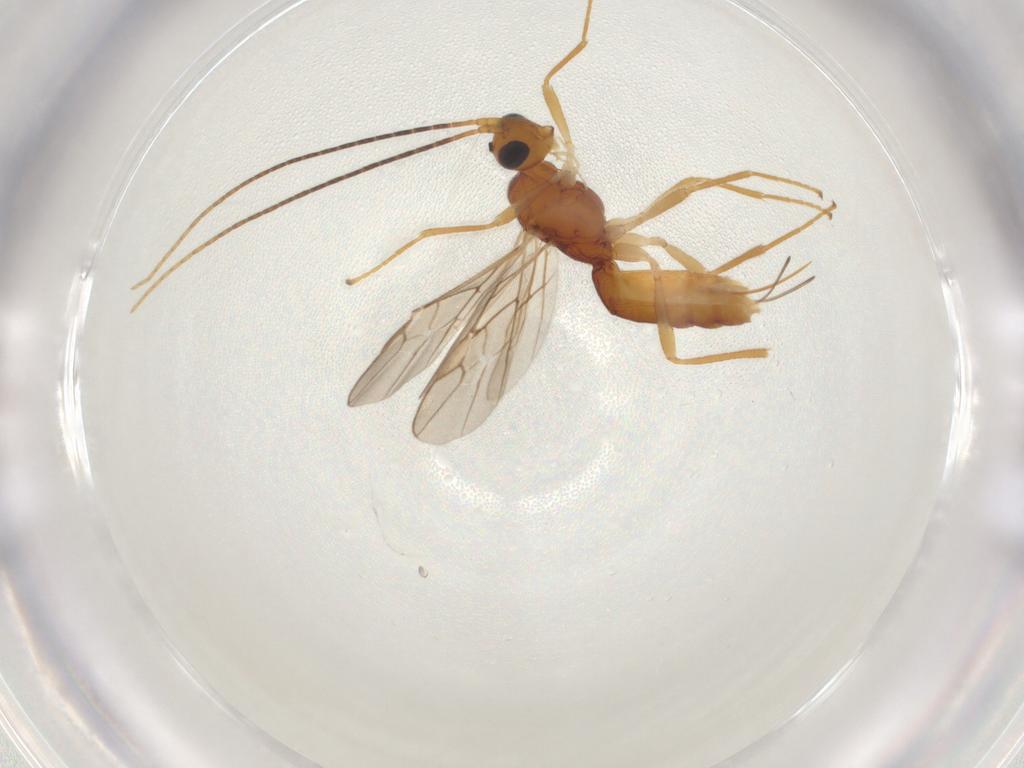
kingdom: Animalia
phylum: Arthropoda
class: Insecta
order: Hymenoptera
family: Braconidae
